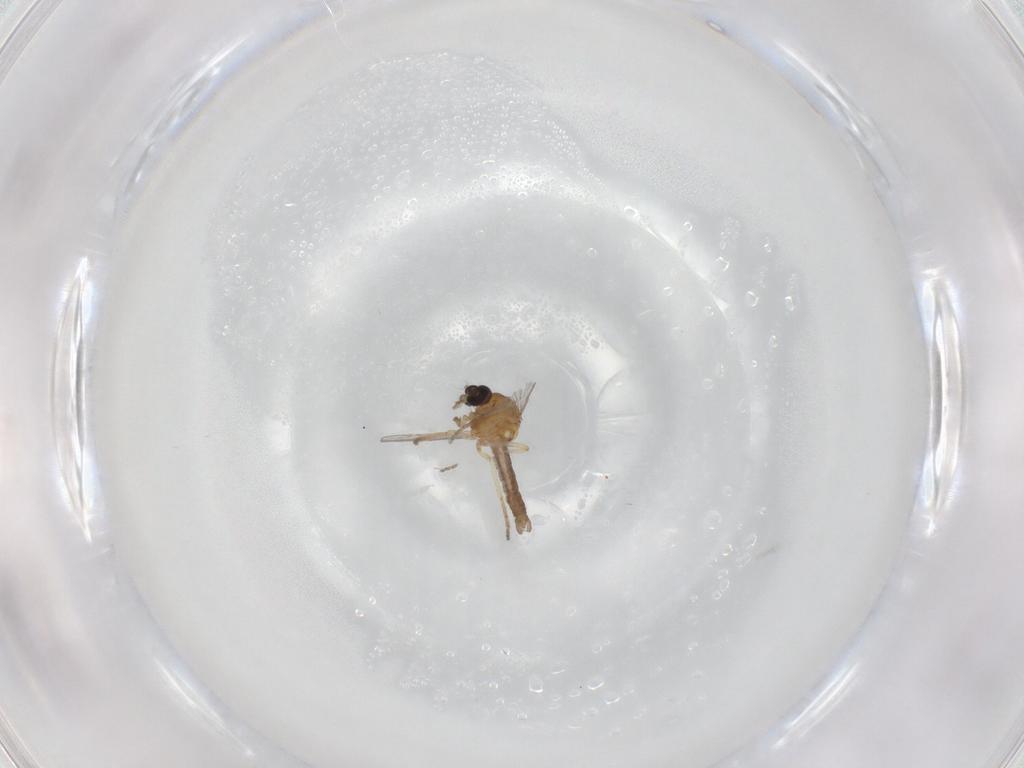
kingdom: Animalia
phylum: Arthropoda
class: Insecta
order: Diptera
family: Ceratopogonidae
